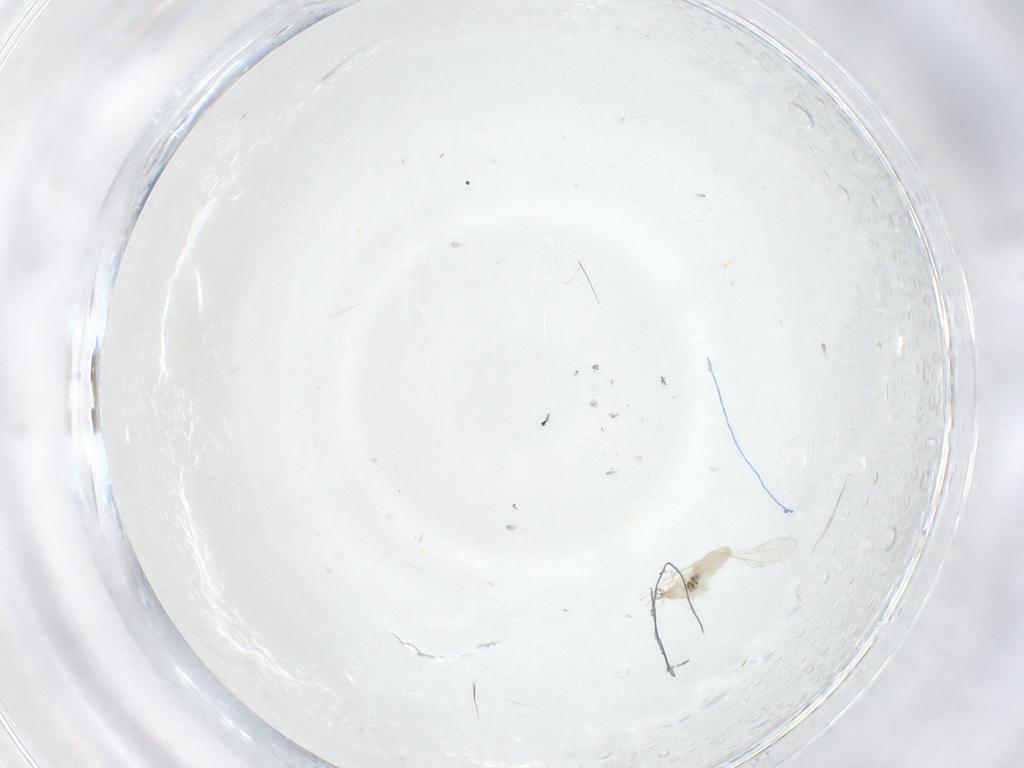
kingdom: Animalia
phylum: Arthropoda
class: Insecta
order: Diptera
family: Cecidomyiidae
